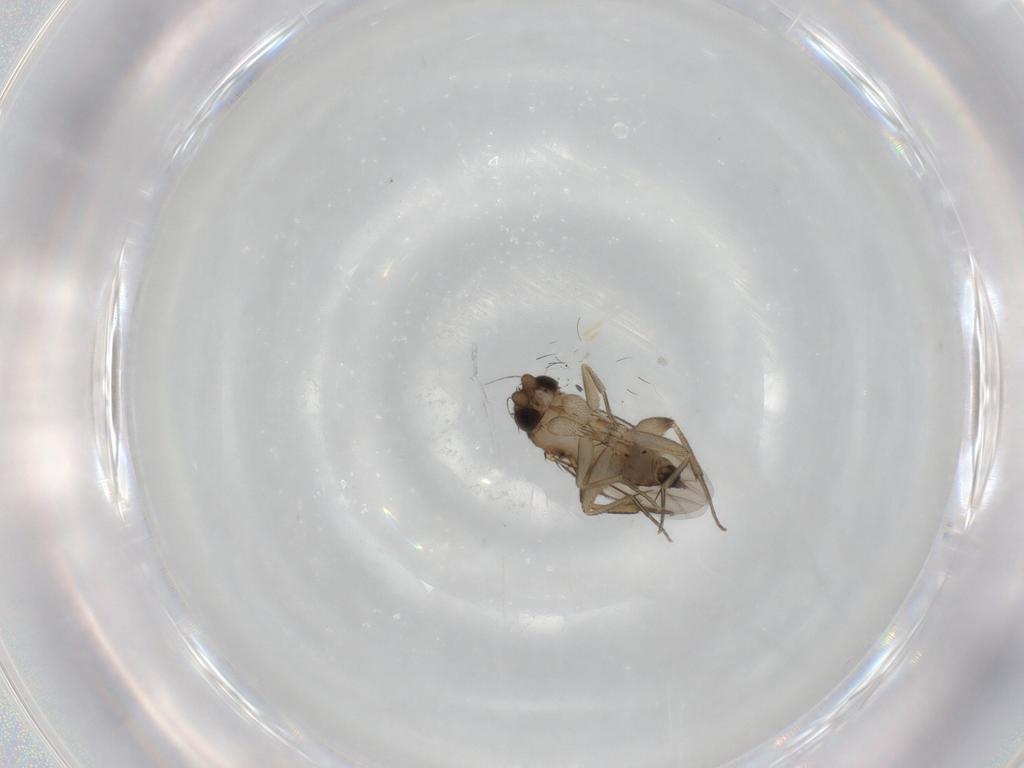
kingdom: Animalia
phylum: Arthropoda
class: Insecta
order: Diptera
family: Phoridae
